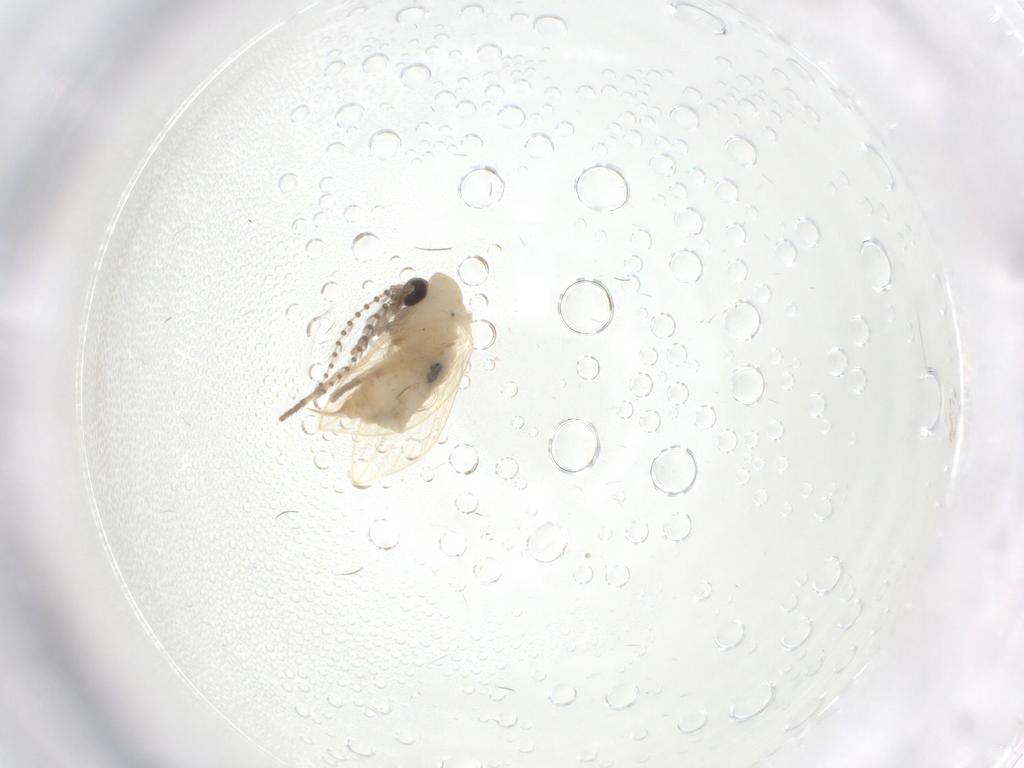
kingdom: Animalia
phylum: Arthropoda
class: Insecta
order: Diptera
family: Psychodidae
